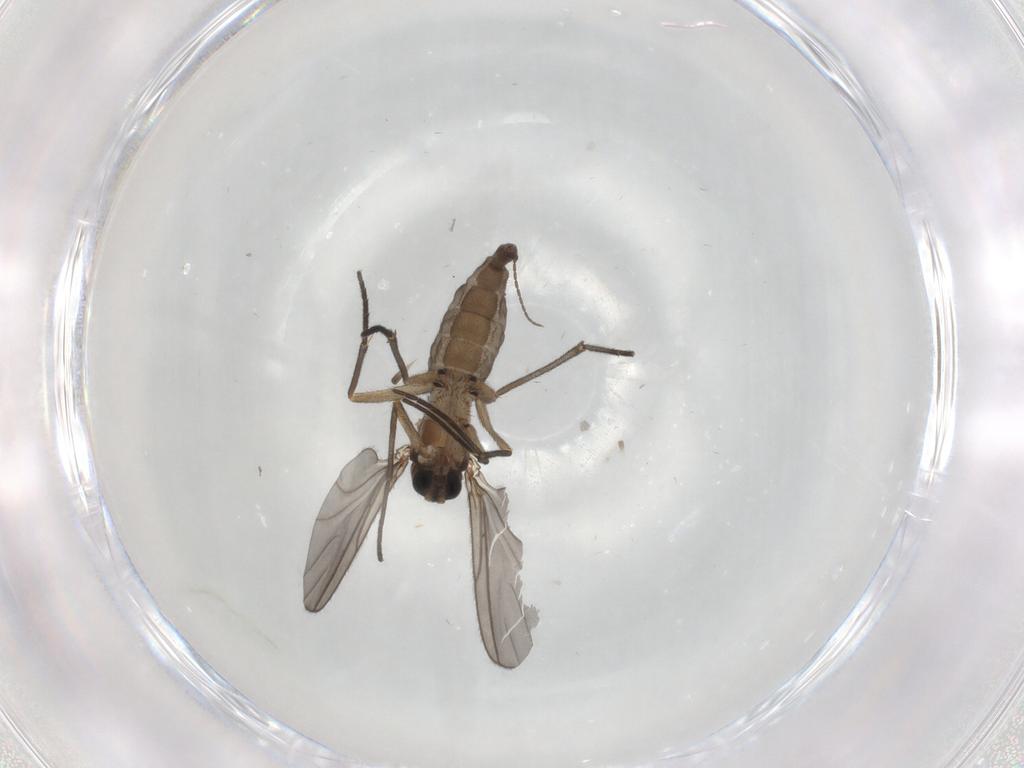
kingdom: Animalia
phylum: Arthropoda
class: Insecta
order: Diptera
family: Sciaridae
